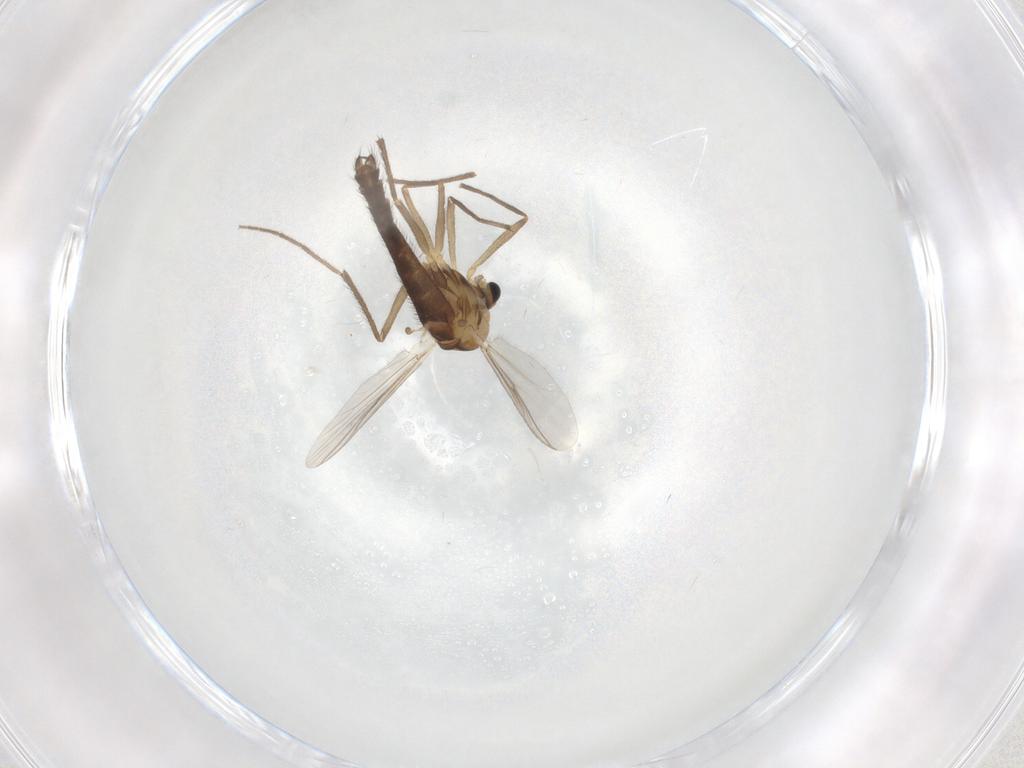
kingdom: Animalia
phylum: Arthropoda
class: Insecta
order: Diptera
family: Chironomidae
